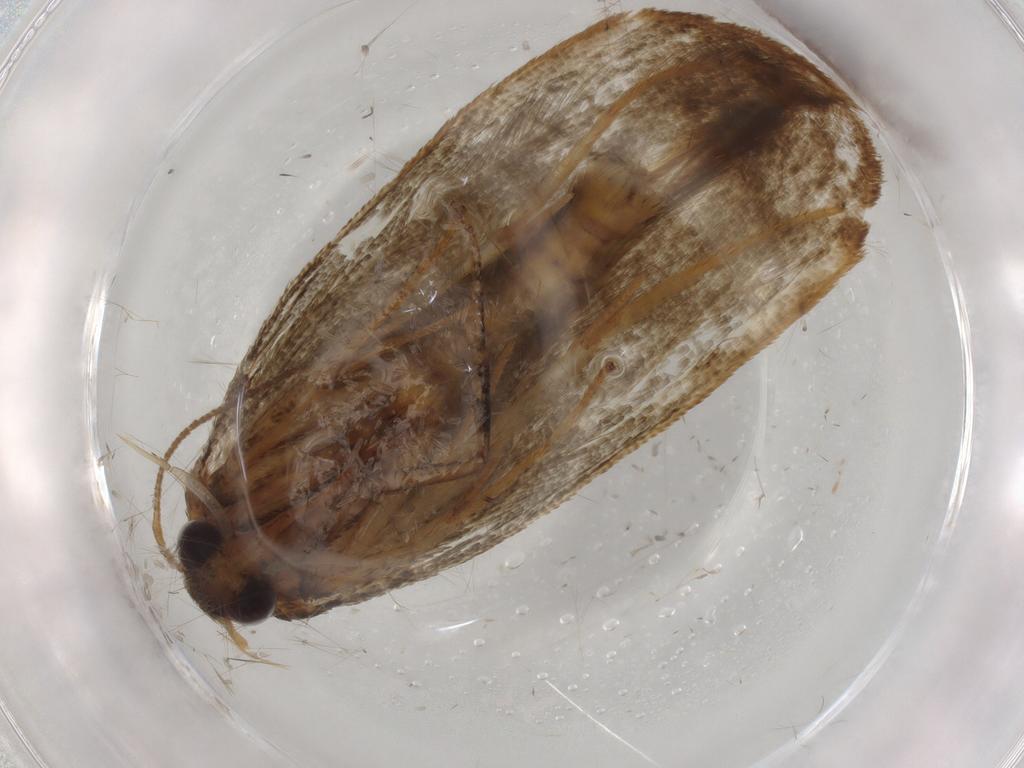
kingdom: Animalia
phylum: Arthropoda
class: Insecta
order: Lepidoptera
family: Blastobasidae
